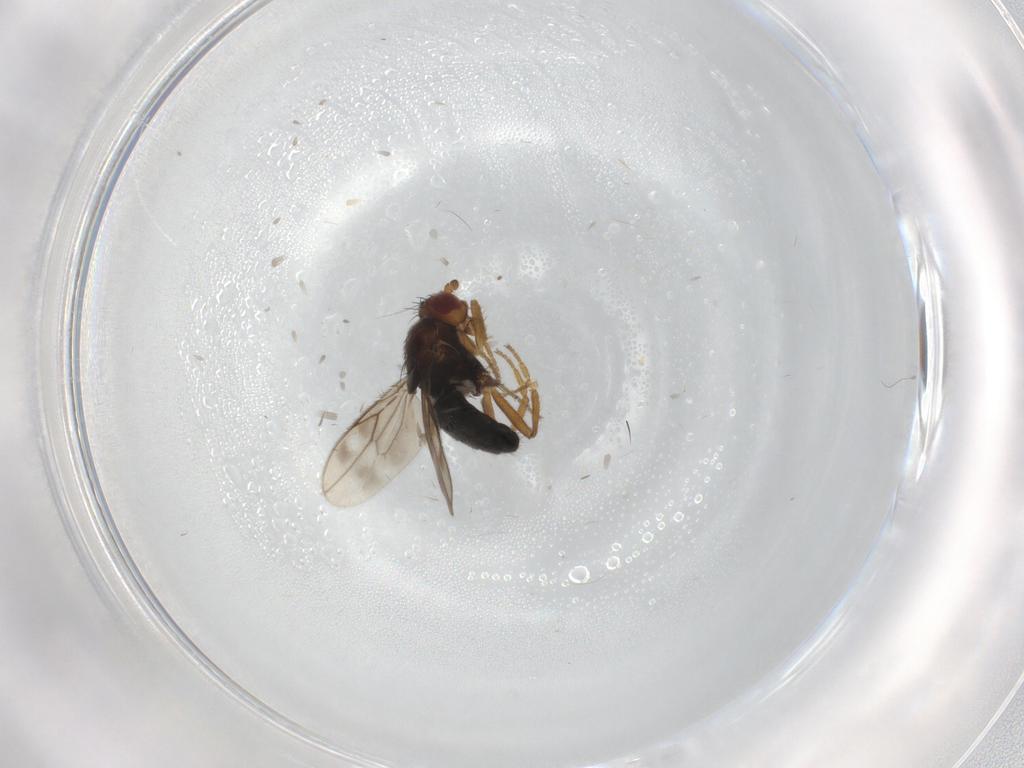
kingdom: Animalia
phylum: Arthropoda
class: Insecta
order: Diptera
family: Sphaeroceridae
